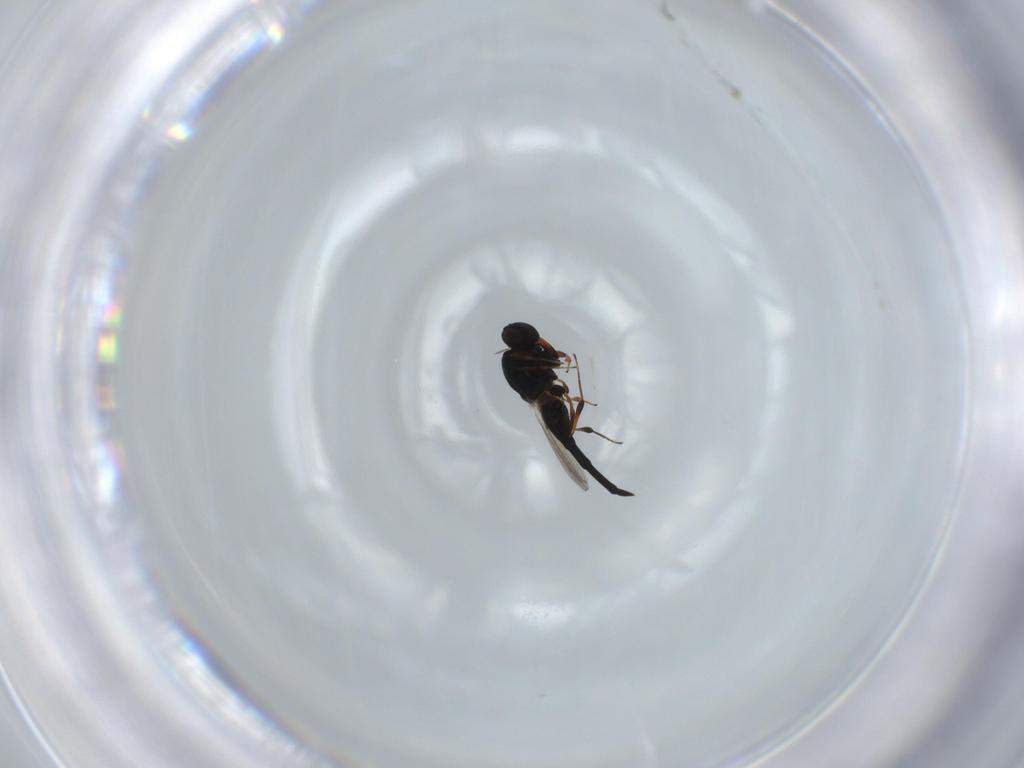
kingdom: Animalia
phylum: Arthropoda
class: Insecta
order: Hymenoptera
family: Platygastridae
